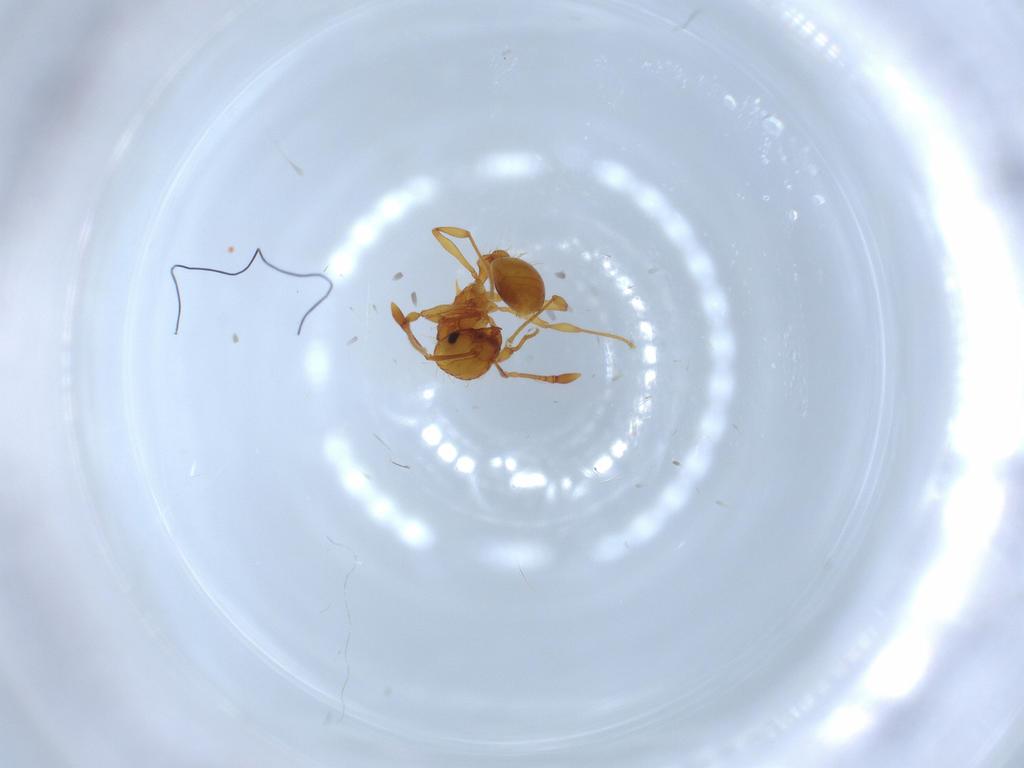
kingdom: Animalia
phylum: Arthropoda
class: Insecta
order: Hymenoptera
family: Formicidae
